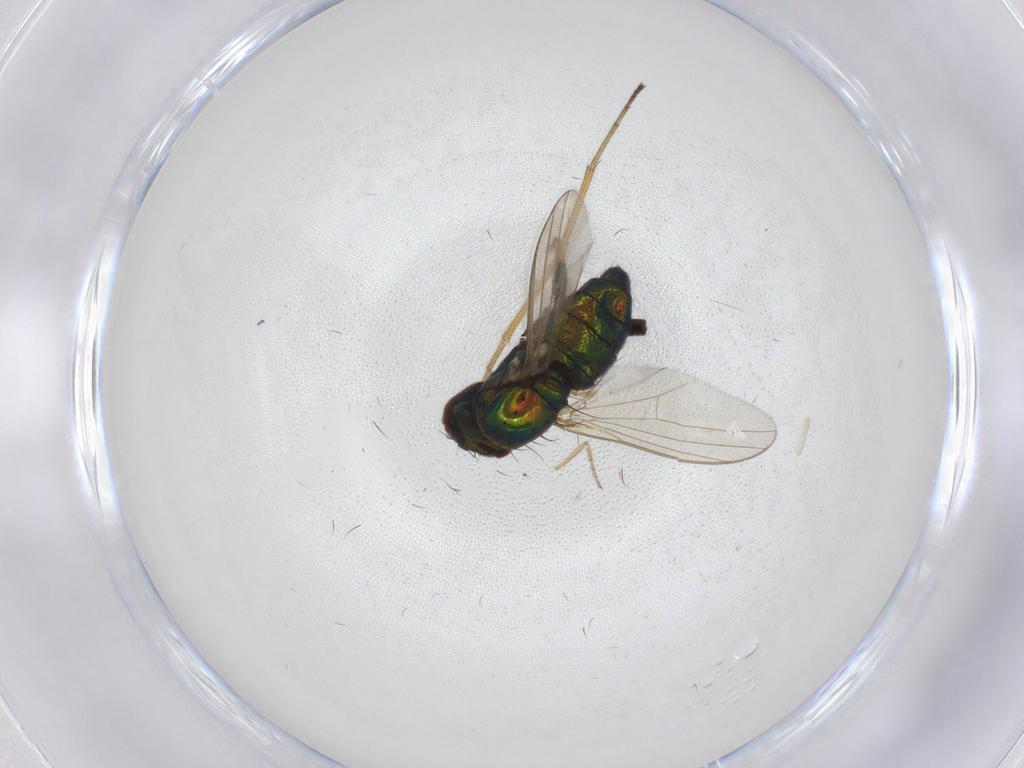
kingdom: Animalia
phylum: Arthropoda
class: Insecta
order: Diptera
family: Dolichopodidae
